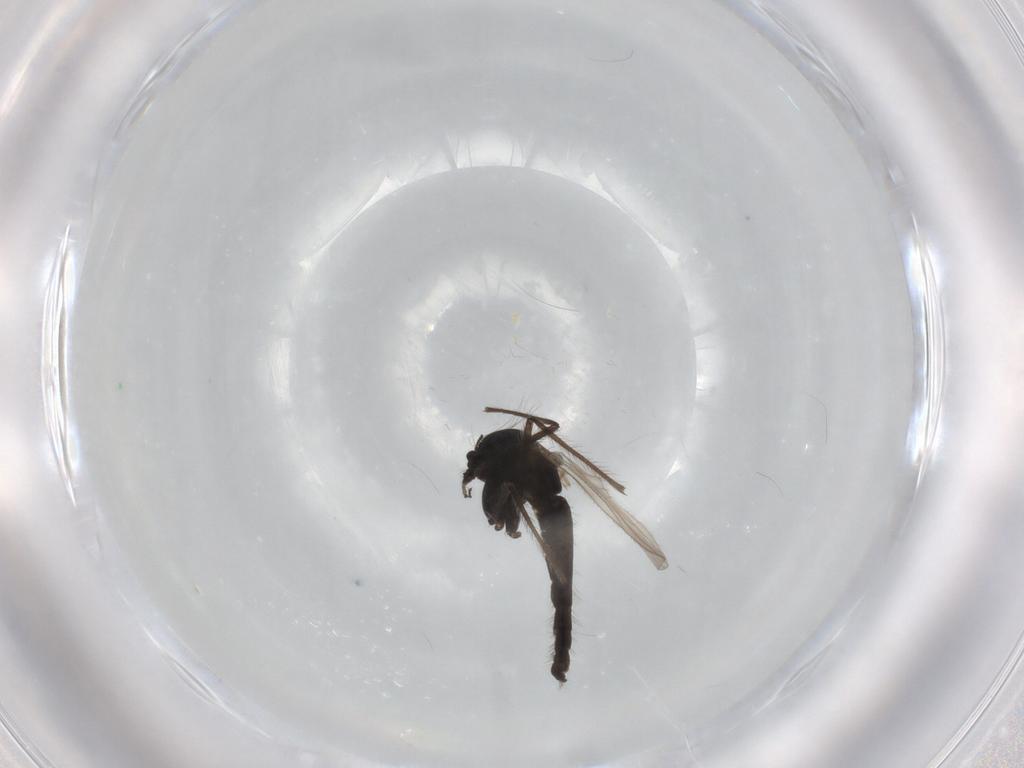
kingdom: Animalia
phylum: Arthropoda
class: Insecta
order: Diptera
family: Chironomidae
